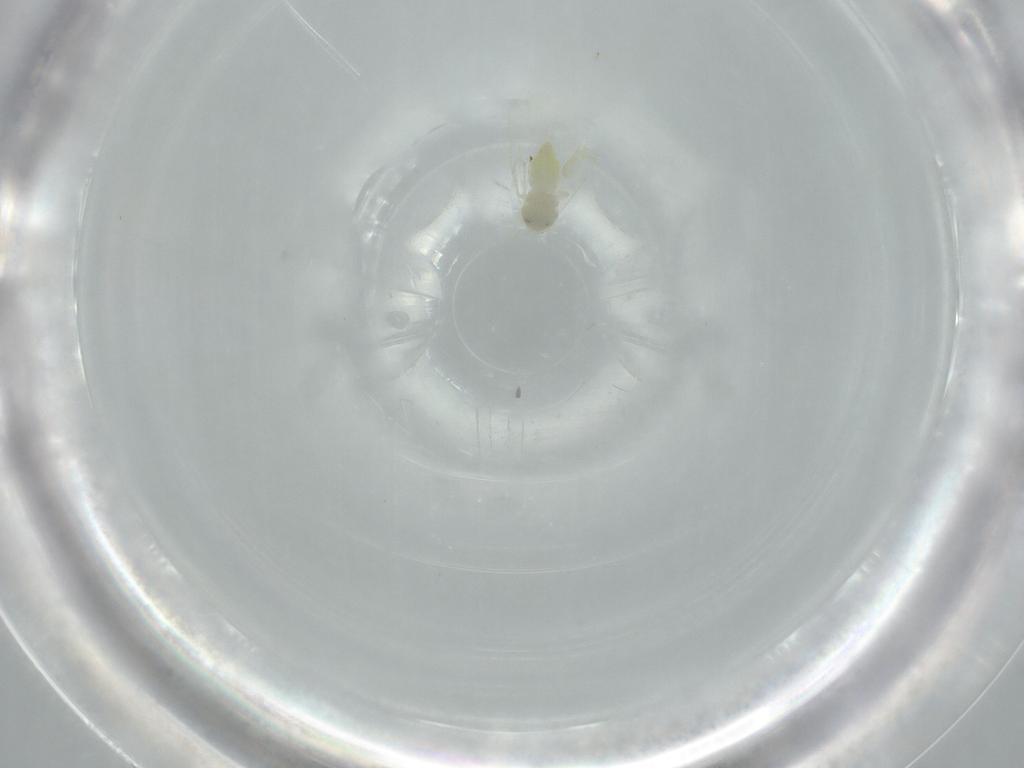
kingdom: Animalia
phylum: Arthropoda
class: Insecta
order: Hemiptera
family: Aleyrodidae
